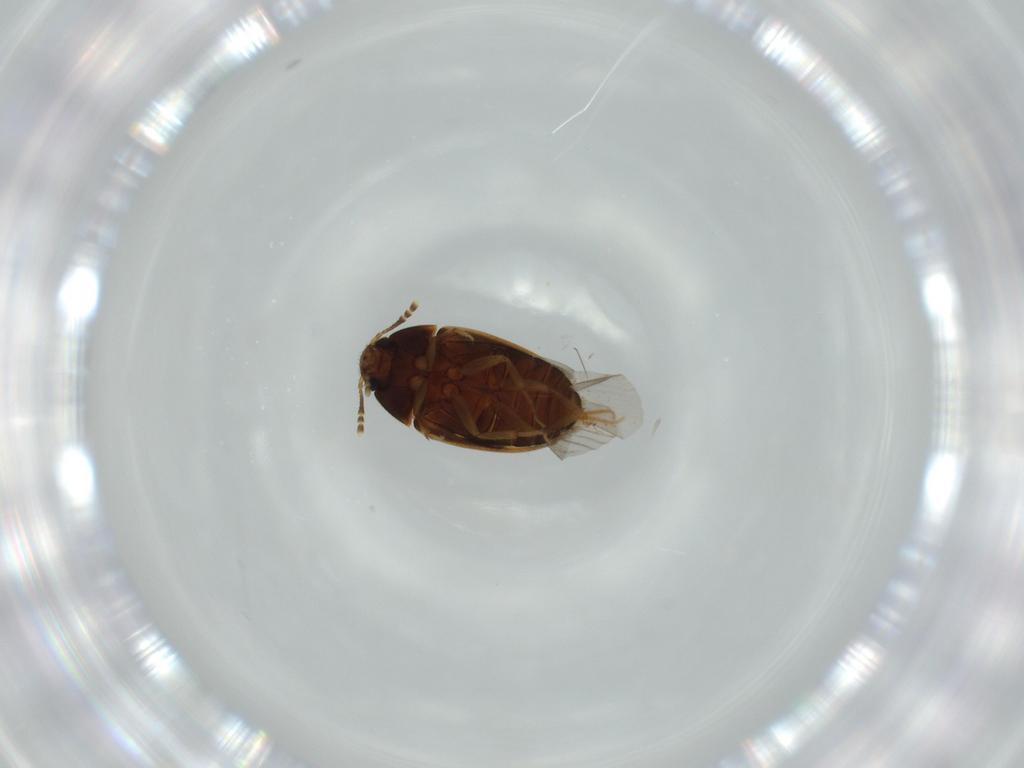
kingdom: Animalia
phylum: Arthropoda
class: Insecta
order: Coleoptera
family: Mycetophagidae
